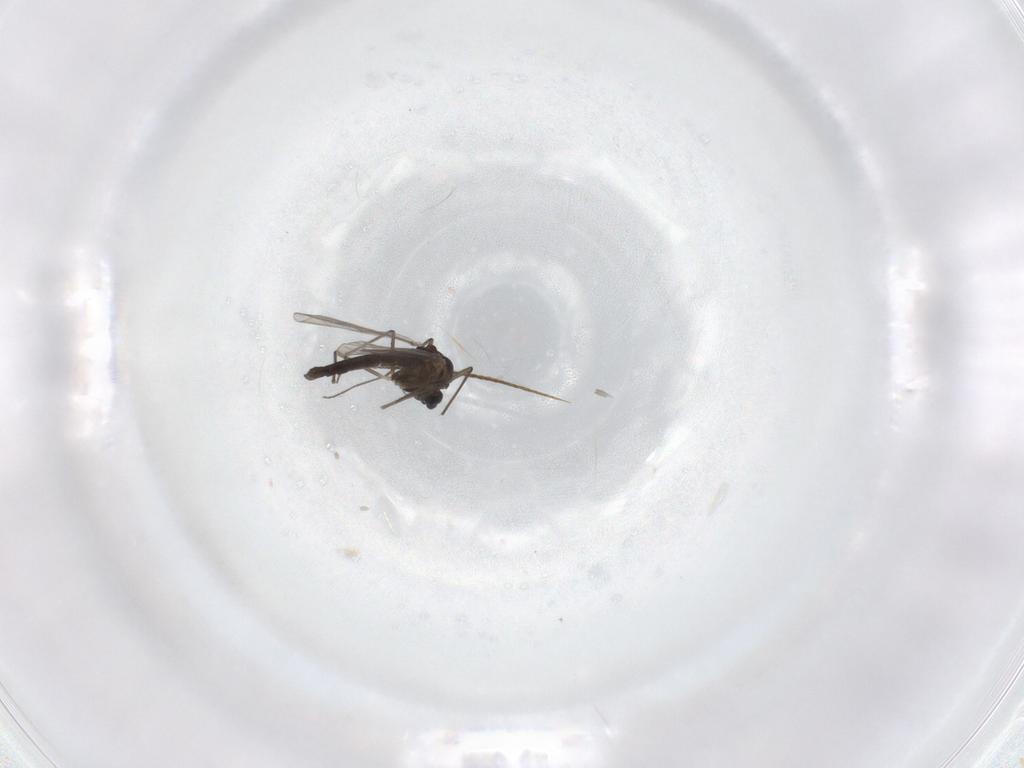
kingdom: Animalia
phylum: Arthropoda
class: Insecta
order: Diptera
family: Chironomidae
